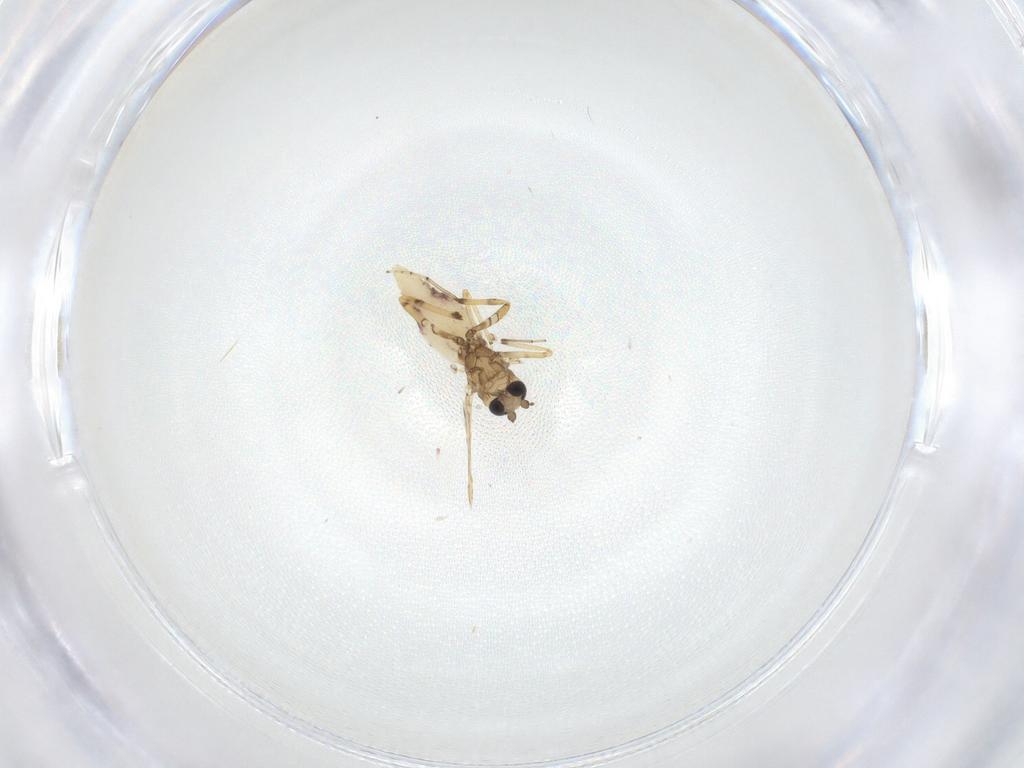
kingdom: Animalia
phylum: Arthropoda
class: Insecta
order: Diptera
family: Ceratopogonidae
